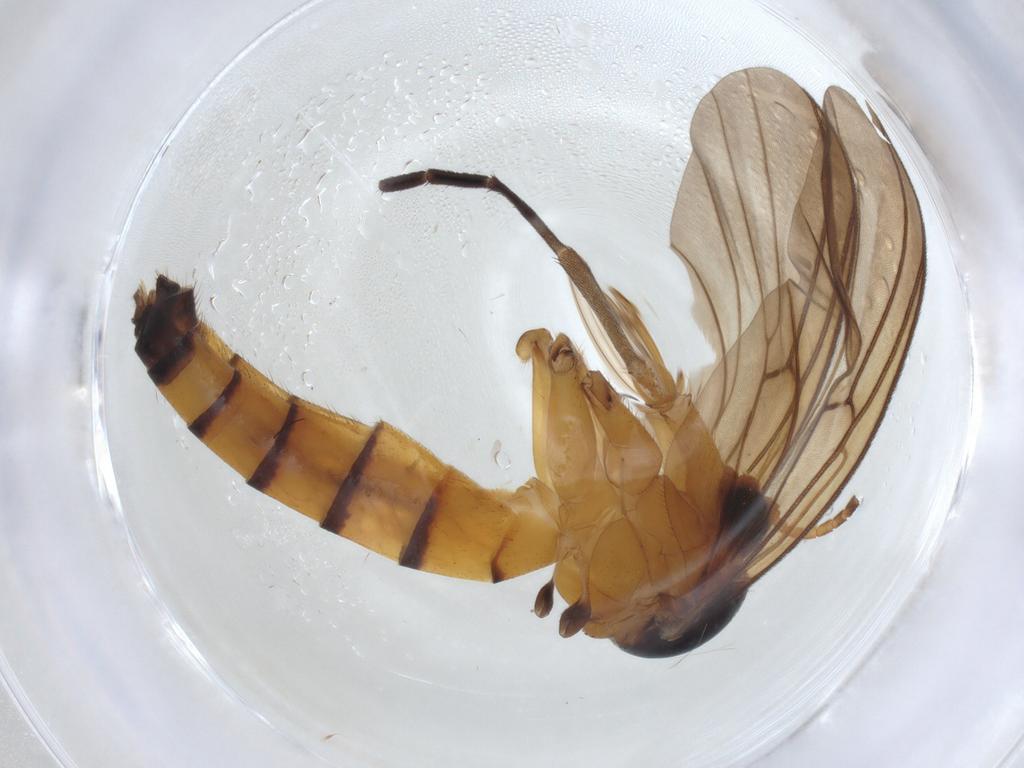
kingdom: Animalia
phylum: Arthropoda
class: Insecta
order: Diptera
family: Mycetophilidae
